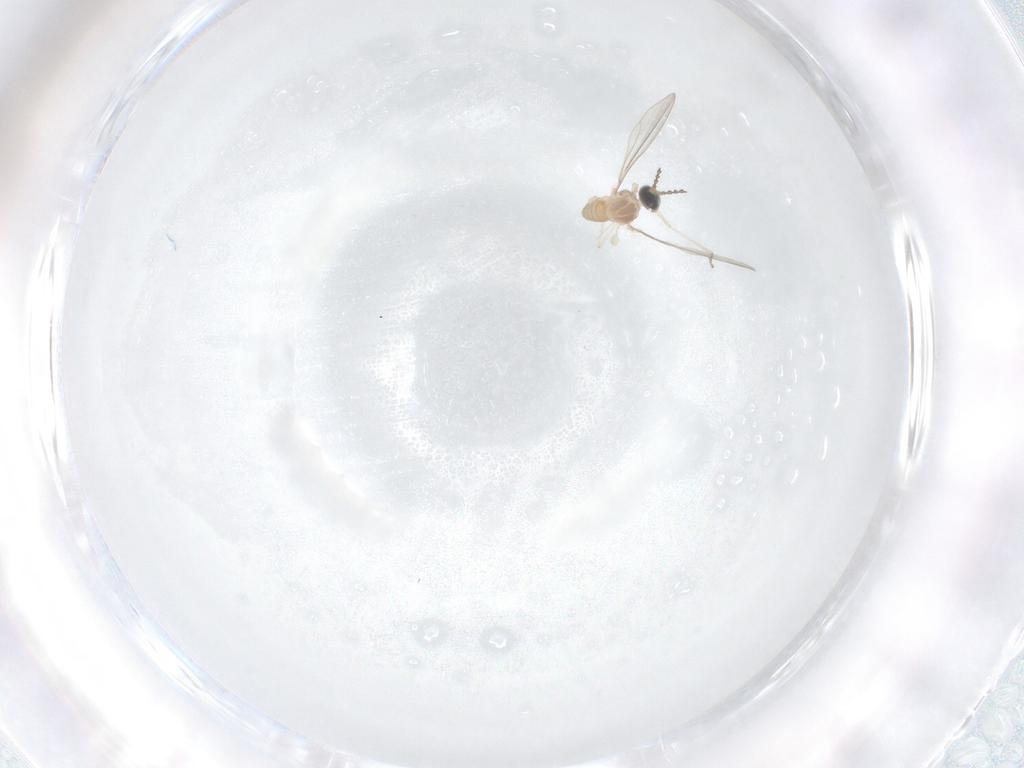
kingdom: Animalia
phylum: Arthropoda
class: Insecta
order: Diptera
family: Cecidomyiidae
